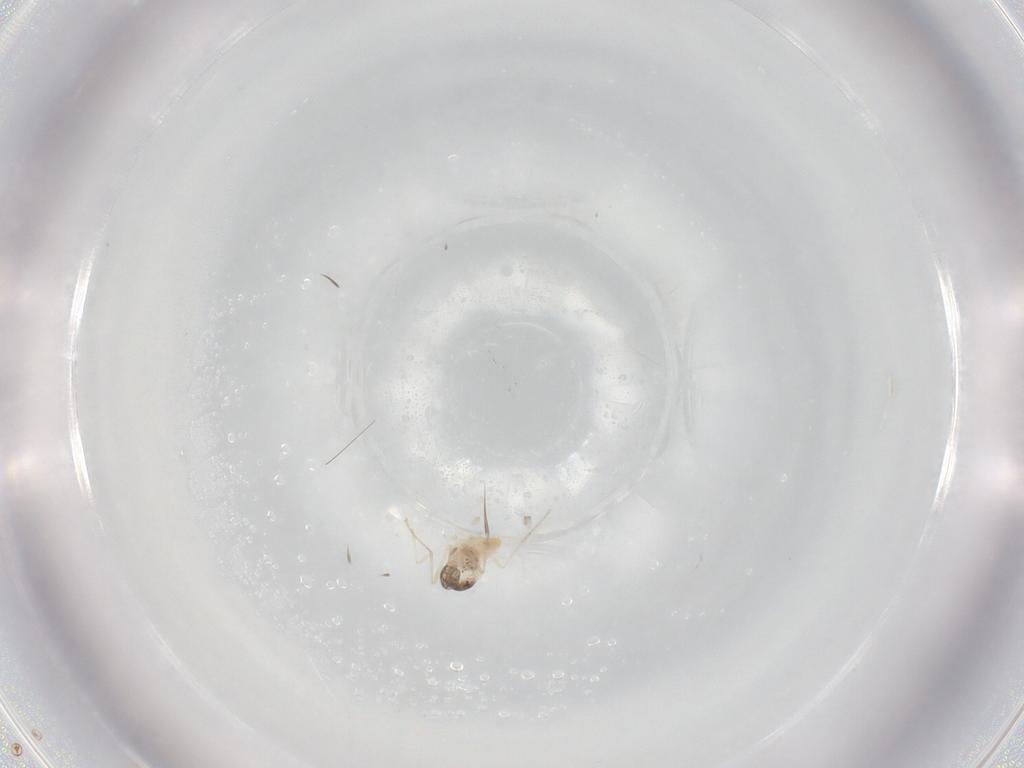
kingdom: Animalia
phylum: Arthropoda
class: Insecta
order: Diptera
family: Cecidomyiidae
